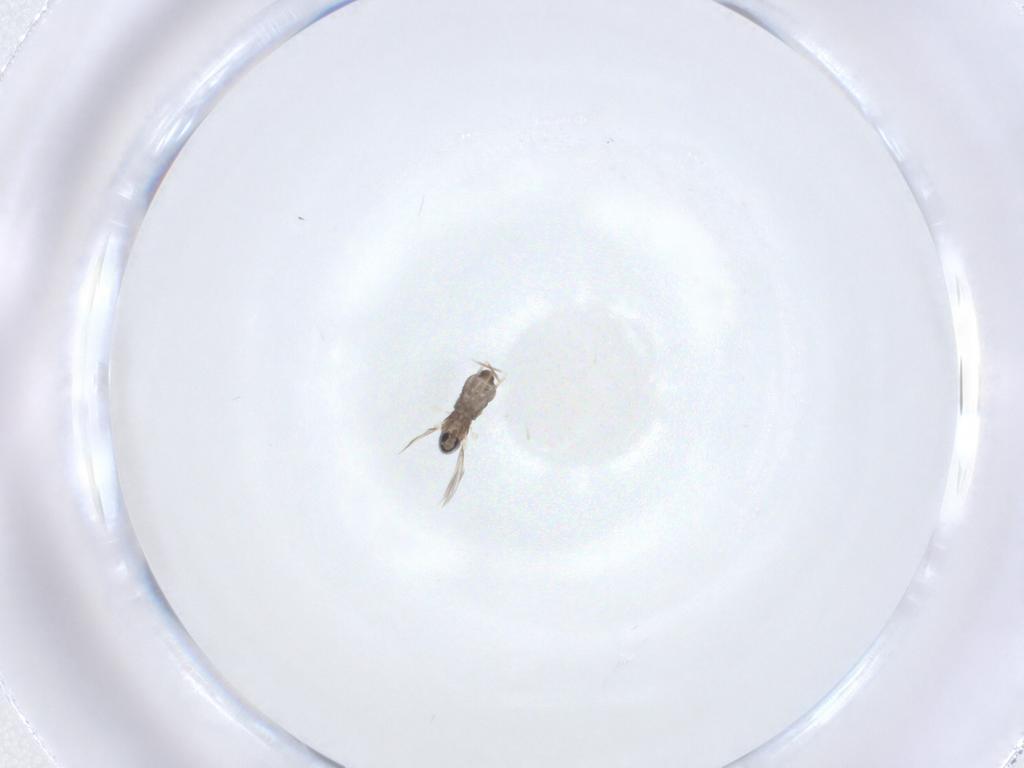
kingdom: Animalia
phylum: Arthropoda
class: Insecta
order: Diptera
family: Cecidomyiidae
